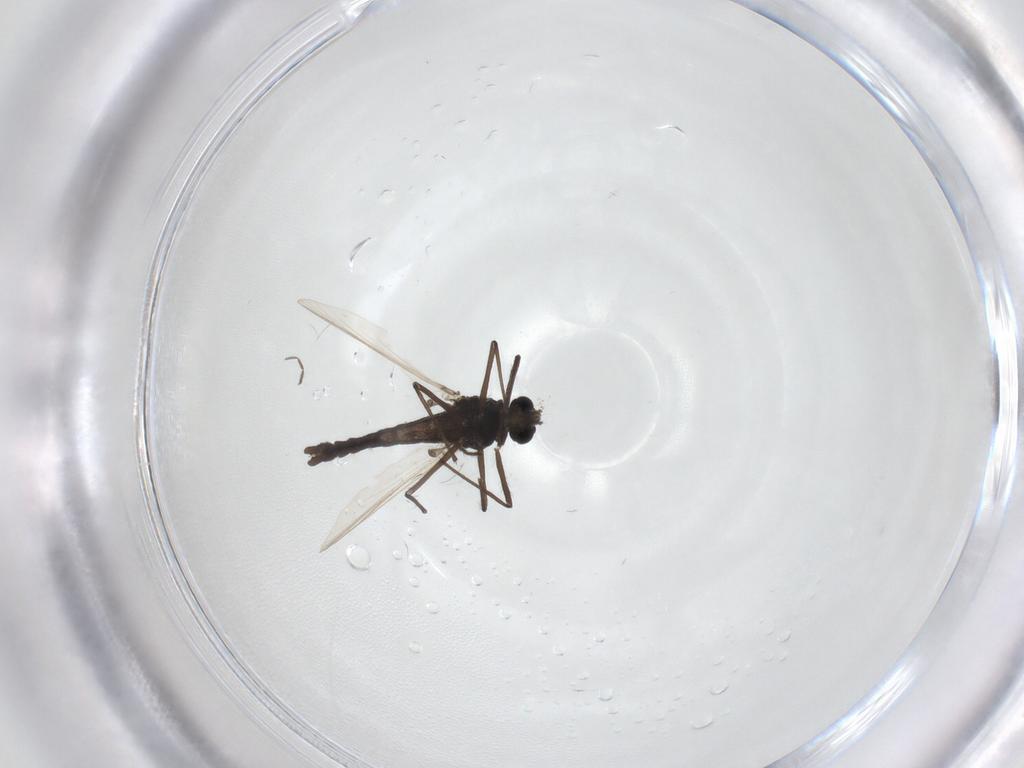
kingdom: Animalia
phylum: Arthropoda
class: Insecta
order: Diptera
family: Chironomidae
